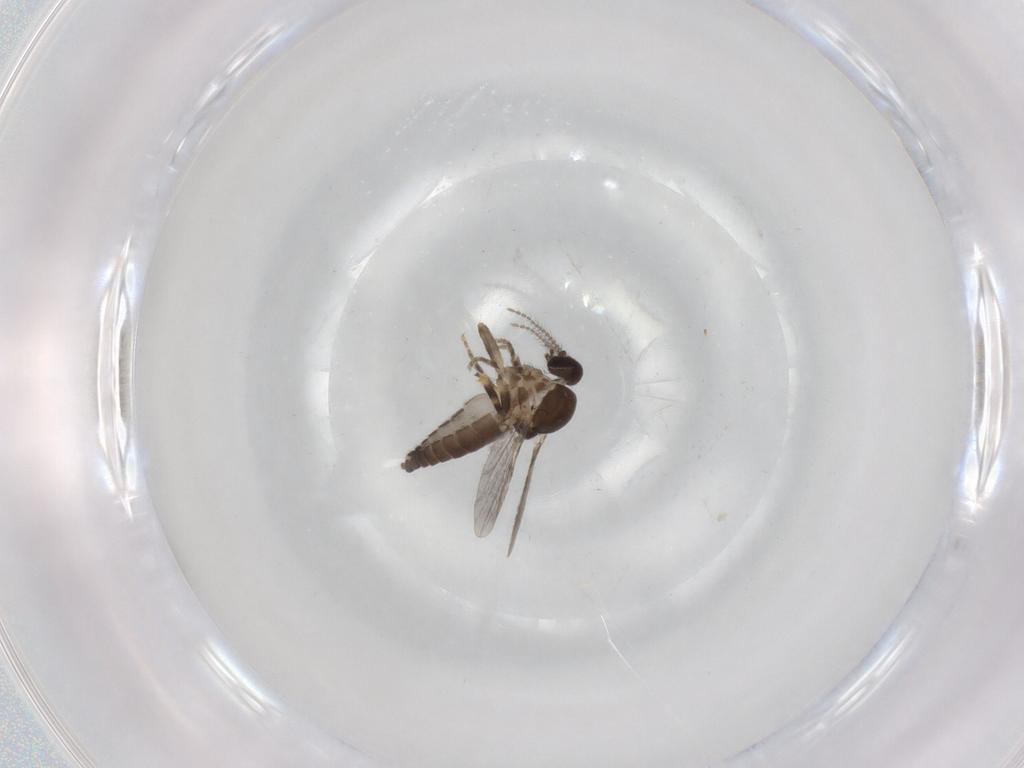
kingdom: Animalia
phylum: Arthropoda
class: Insecta
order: Diptera
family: Ceratopogonidae
